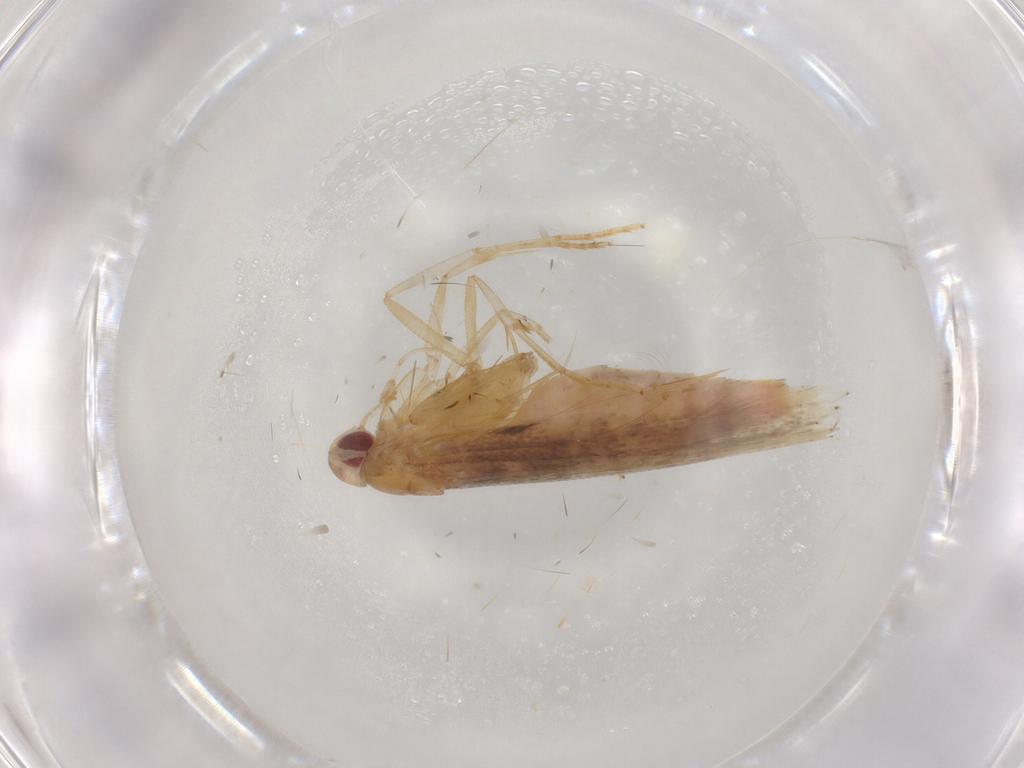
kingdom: Animalia
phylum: Arthropoda
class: Insecta
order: Lepidoptera
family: Cosmopterigidae
